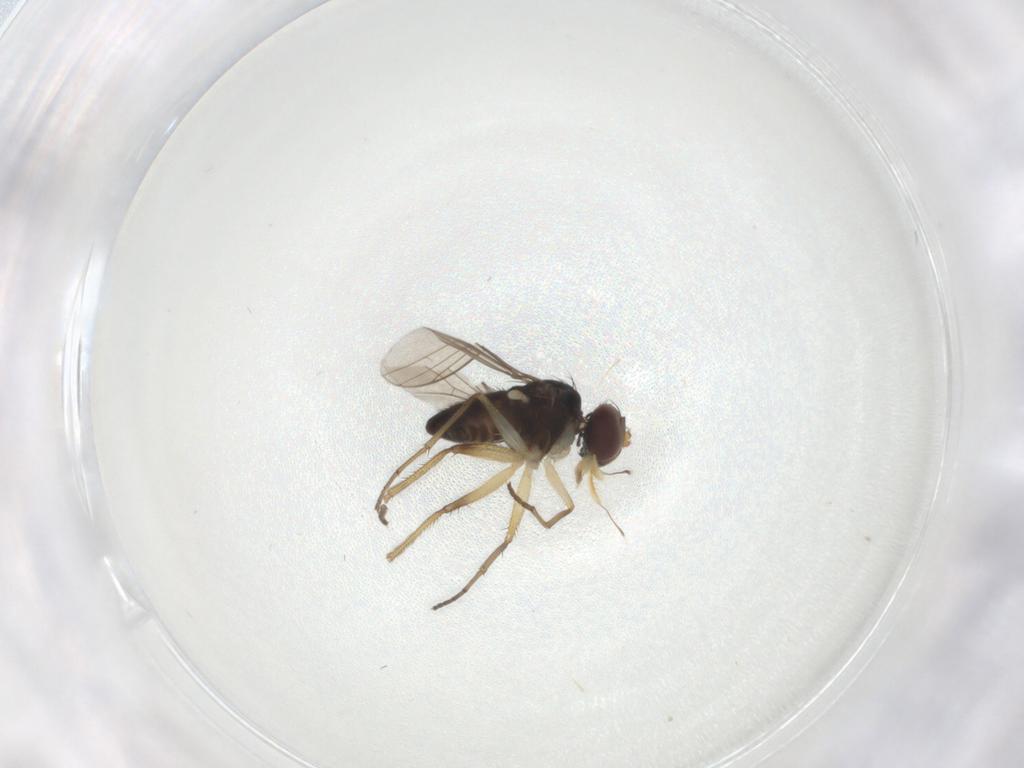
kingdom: Animalia
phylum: Arthropoda
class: Insecta
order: Diptera
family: Dolichopodidae
